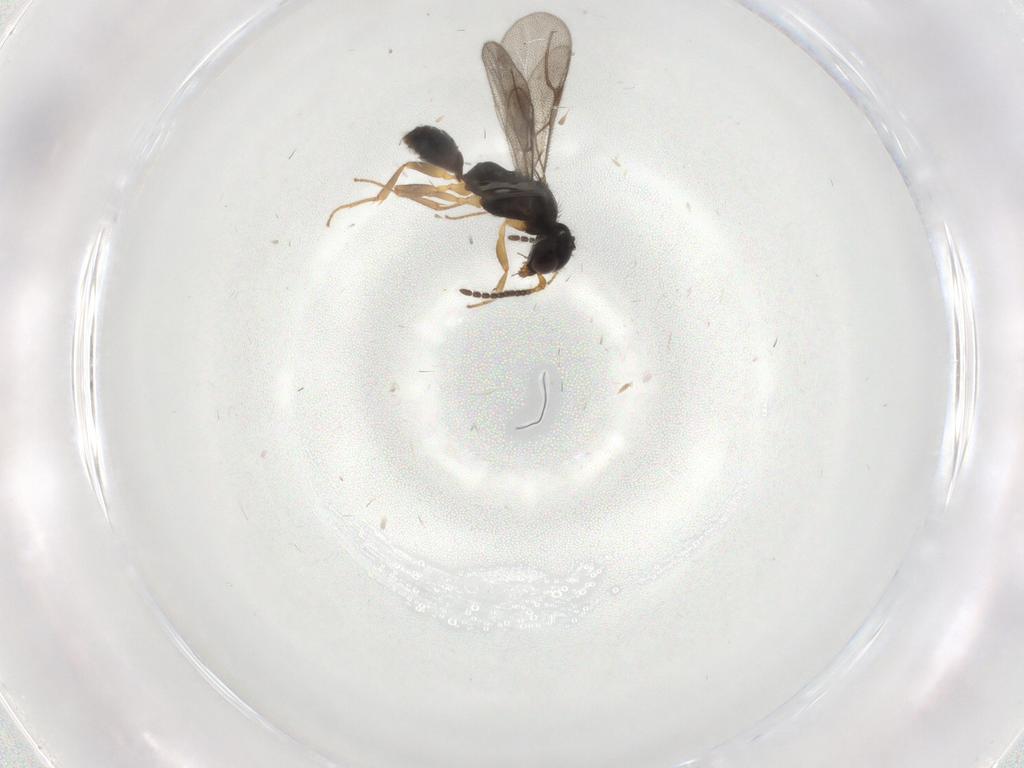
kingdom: Animalia
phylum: Arthropoda
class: Insecta
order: Hymenoptera
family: Bethylidae
